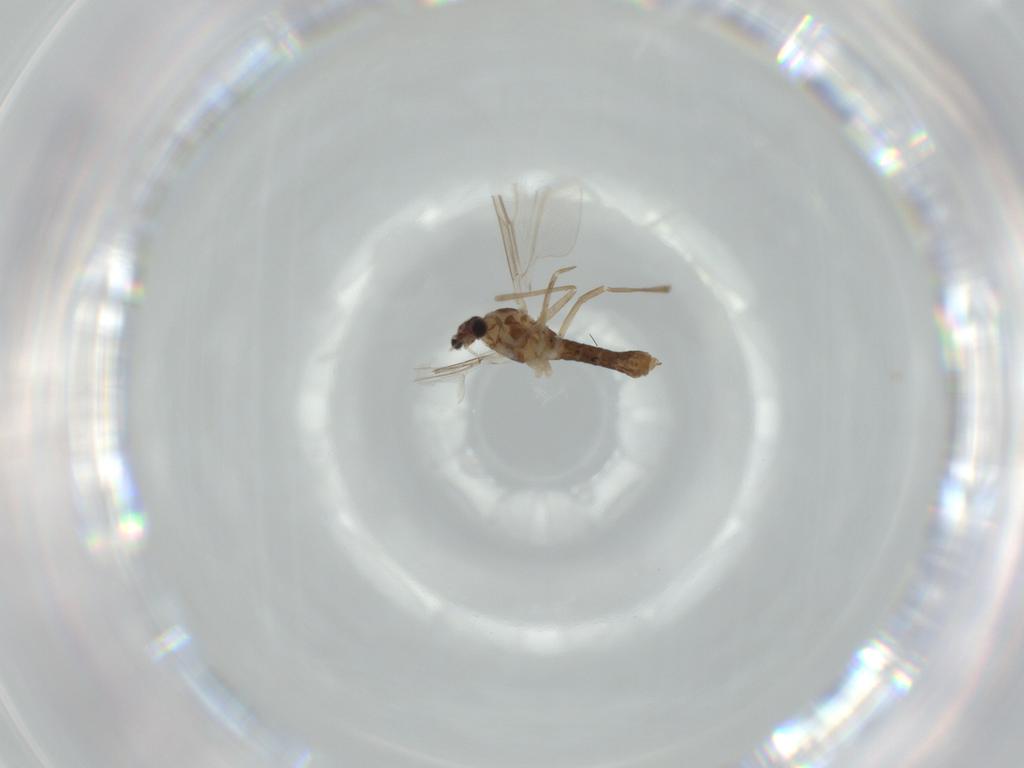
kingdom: Animalia
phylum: Arthropoda
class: Insecta
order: Diptera
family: Cecidomyiidae
